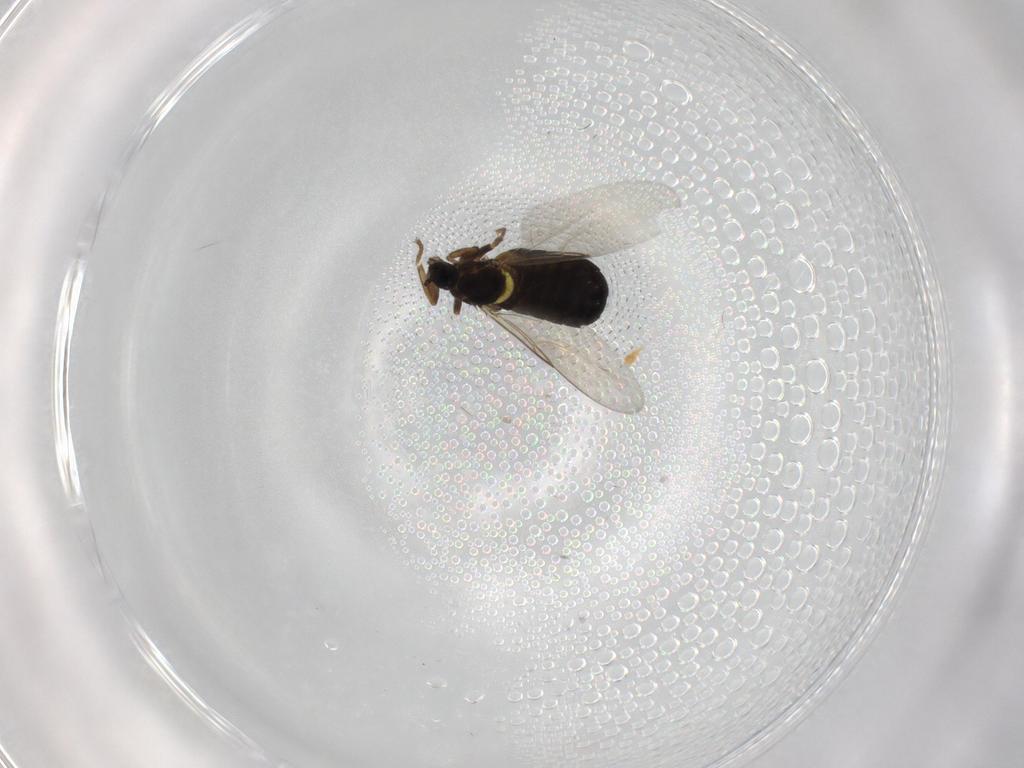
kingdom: Animalia
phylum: Arthropoda
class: Insecta
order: Diptera
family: Scatopsidae
